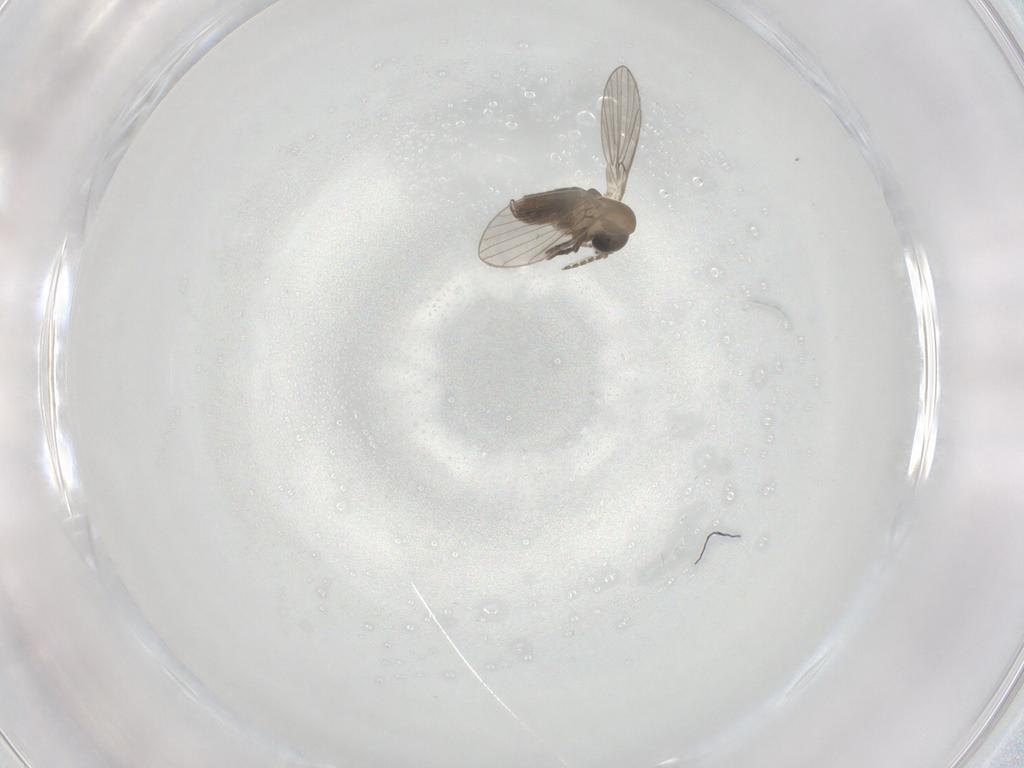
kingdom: Animalia
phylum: Arthropoda
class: Insecta
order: Diptera
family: Psychodidae
